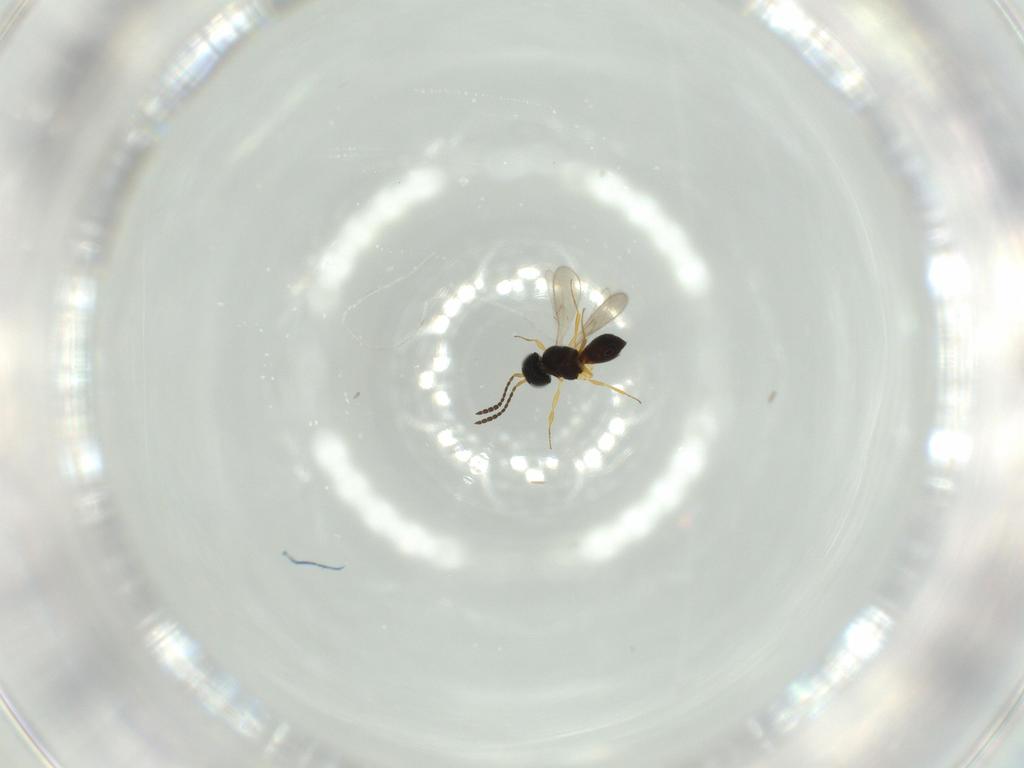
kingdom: Animalia
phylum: Arthropoda
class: Insecta
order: Hymenoptera
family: Scelionidae
